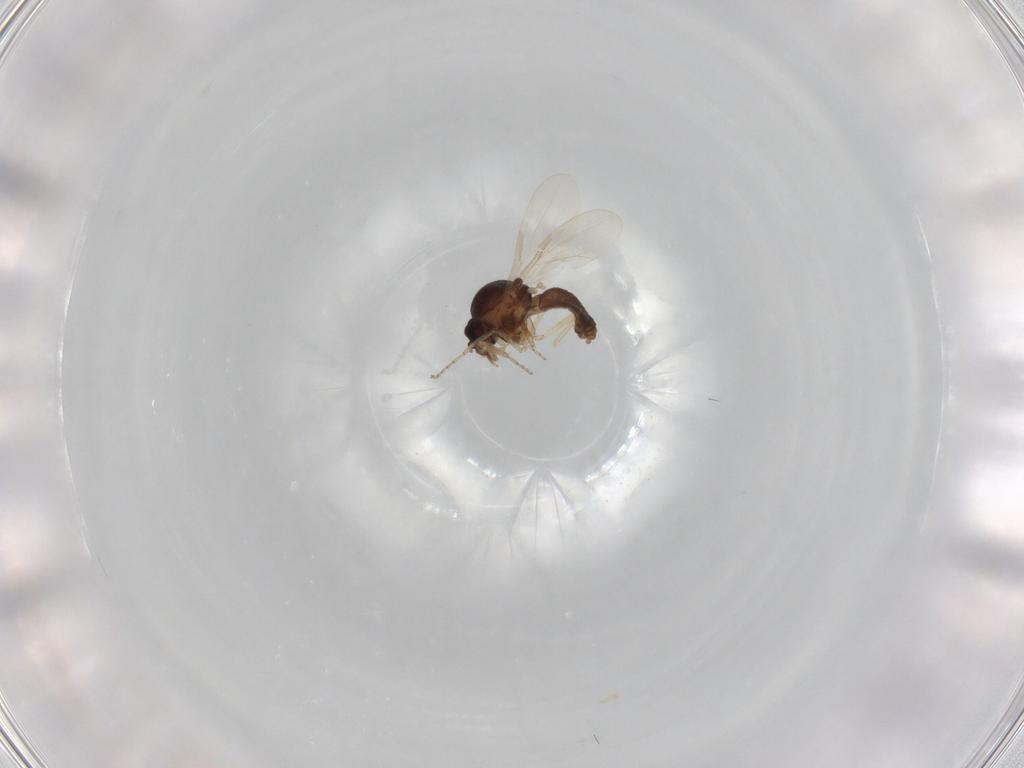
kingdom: Animalia
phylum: Arthropoda
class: Insecta
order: Diptera
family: Ceratopogonidae
